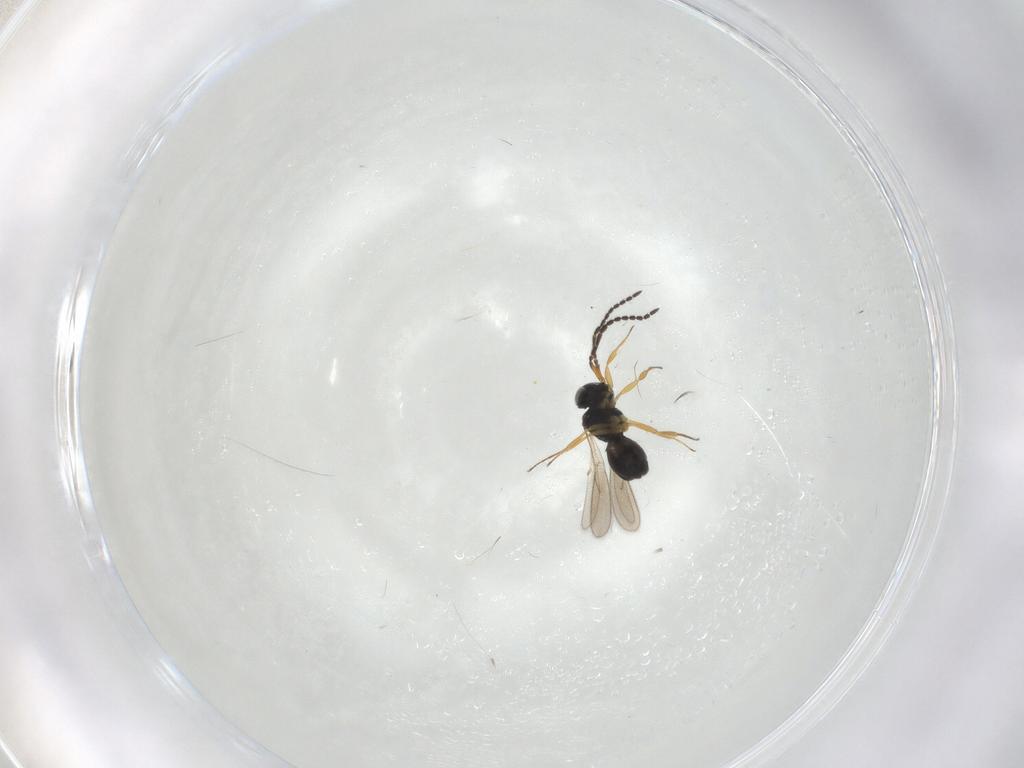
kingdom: Animalia
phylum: Arthropoda
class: Insecta
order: Hymenoptera
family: Scelionidae
